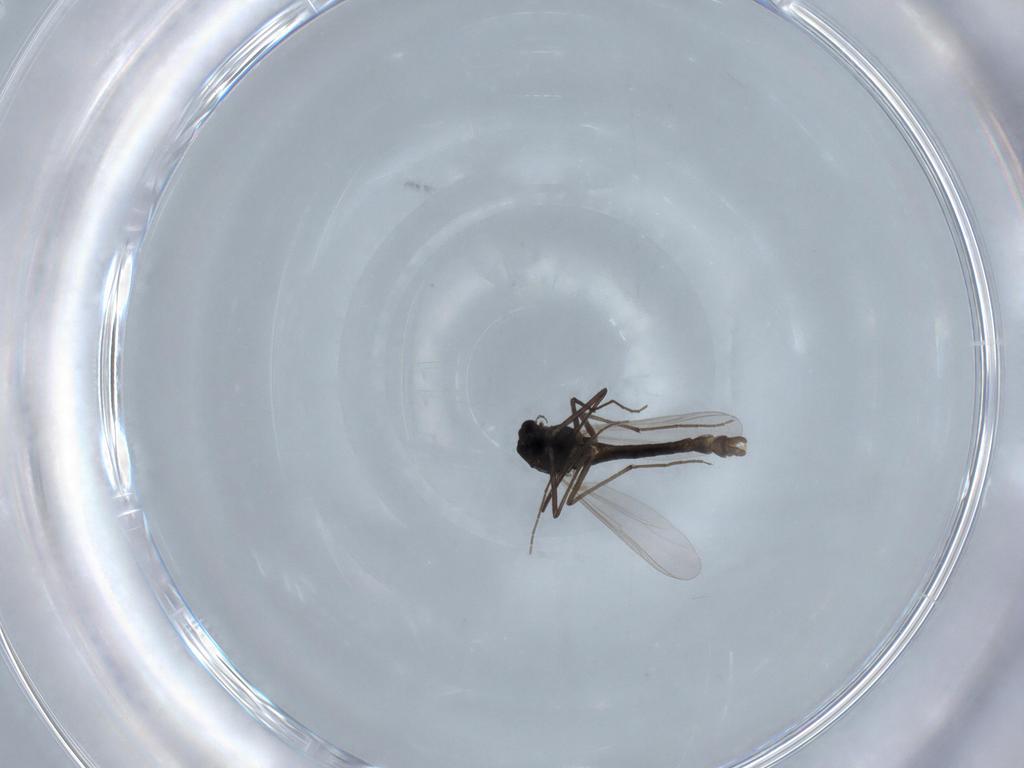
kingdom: Animalia
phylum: Arthropoda
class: Insecta
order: Diptera
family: Chironomidae
